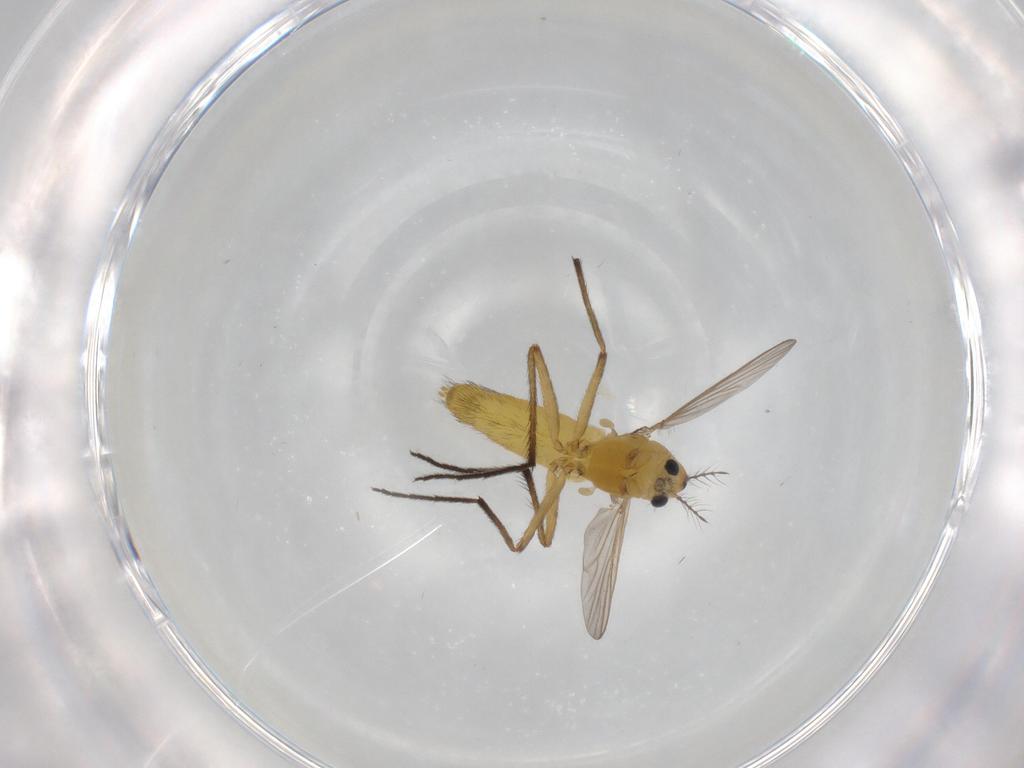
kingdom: Animalia
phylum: Arthropoda
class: Insecta
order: Diptera
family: Chironomidae
